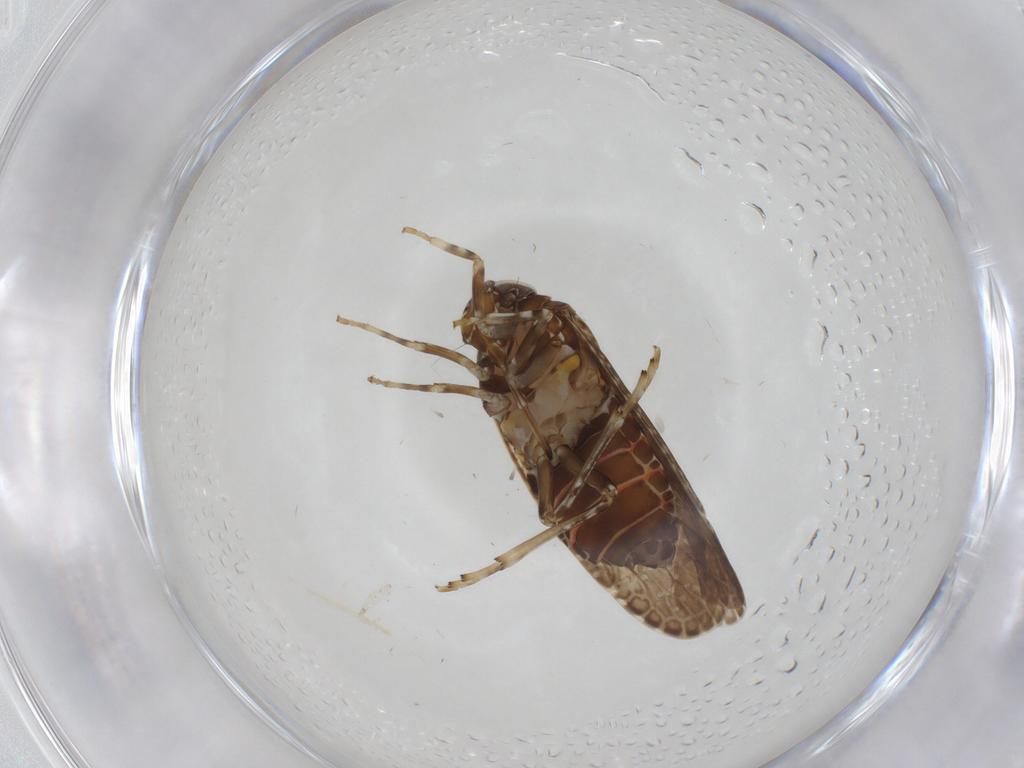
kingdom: Animalia
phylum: Arthropoda
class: Insecta
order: Hemiptera
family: Achilidae
